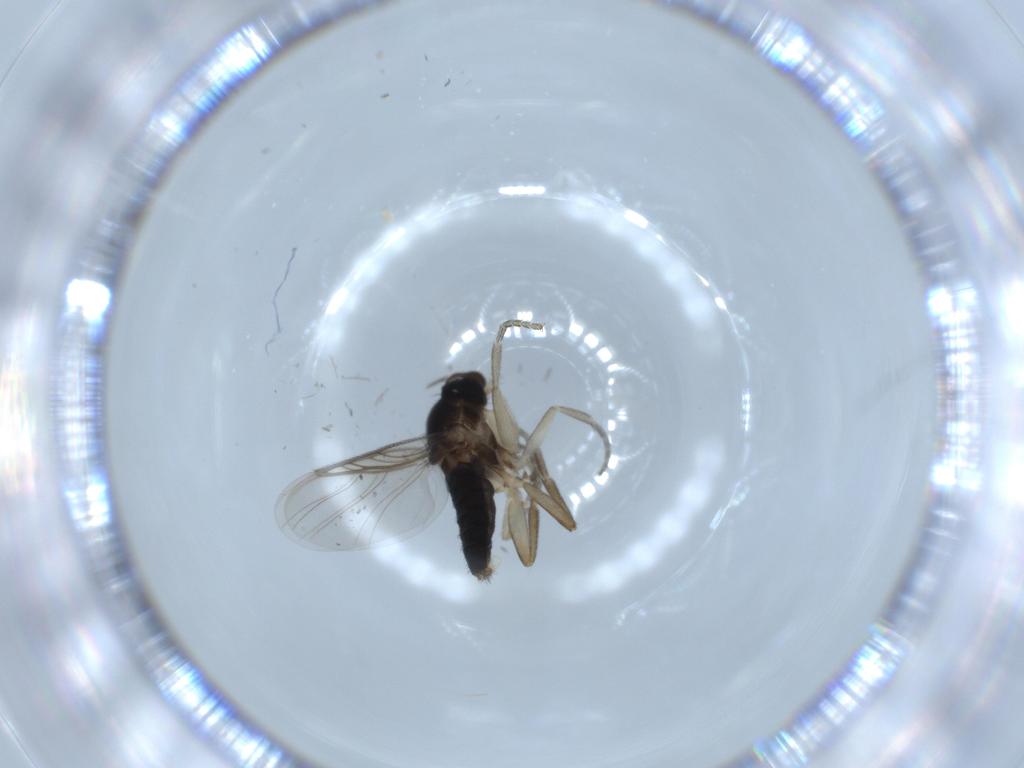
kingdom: Animalia
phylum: Arthropoda
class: Insecta
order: Diptera
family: Phoridae
